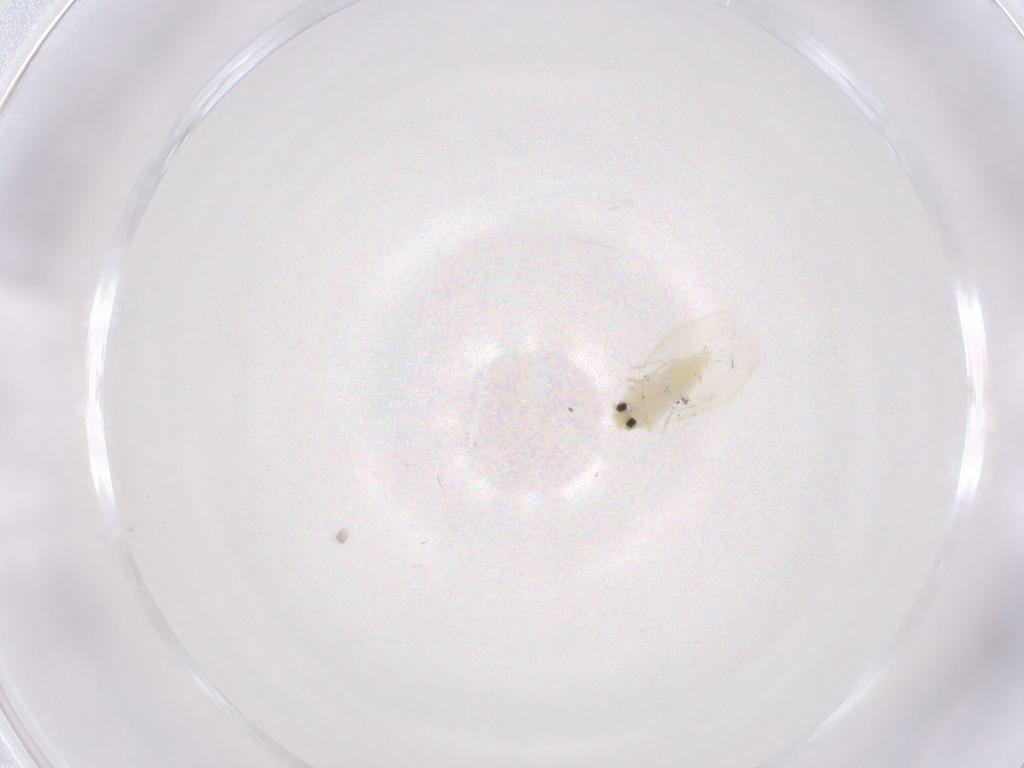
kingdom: Animalia
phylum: Arthropoda
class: Insecta
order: Hemiptera
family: Aleyrodidae
